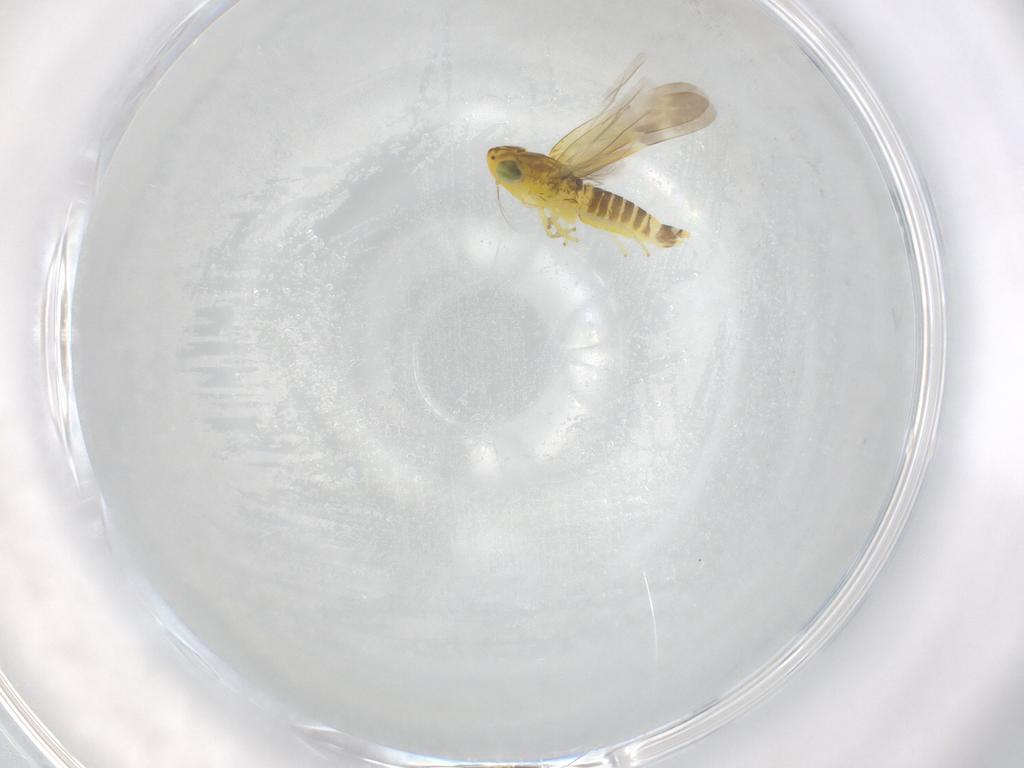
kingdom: Animalia
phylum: Arthropoda
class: Insecta
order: Hemiptera
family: Cicadellidae
